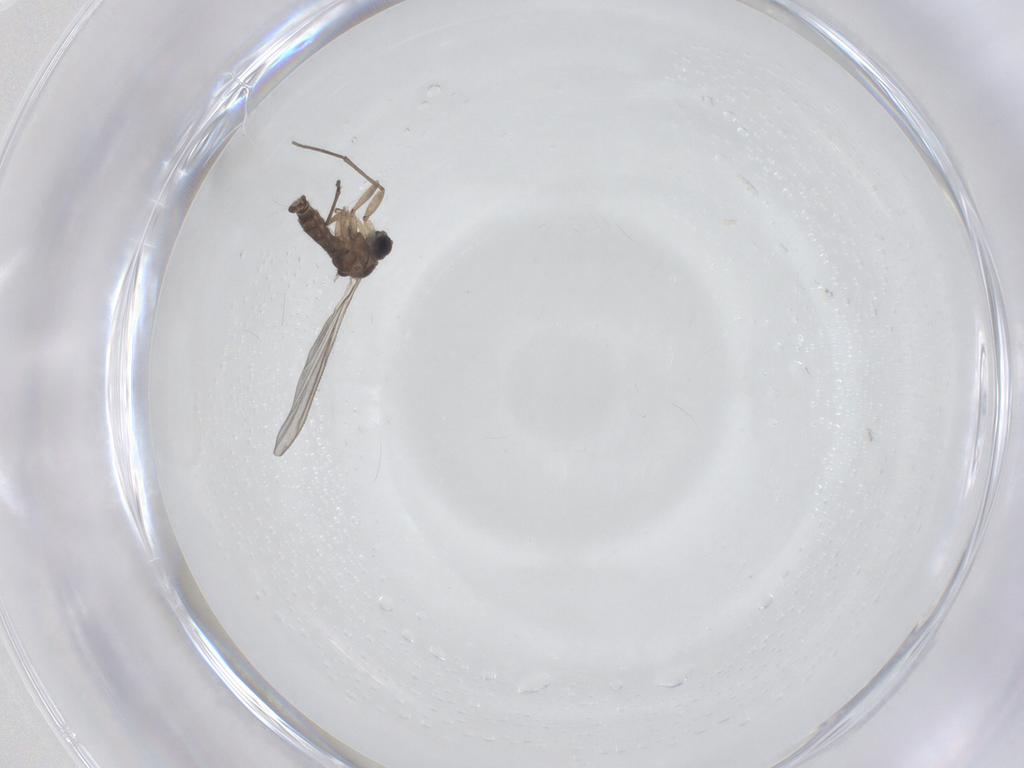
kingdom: Animalia
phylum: Arthropoda
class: Insecta
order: Diptera
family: Sciaridae
